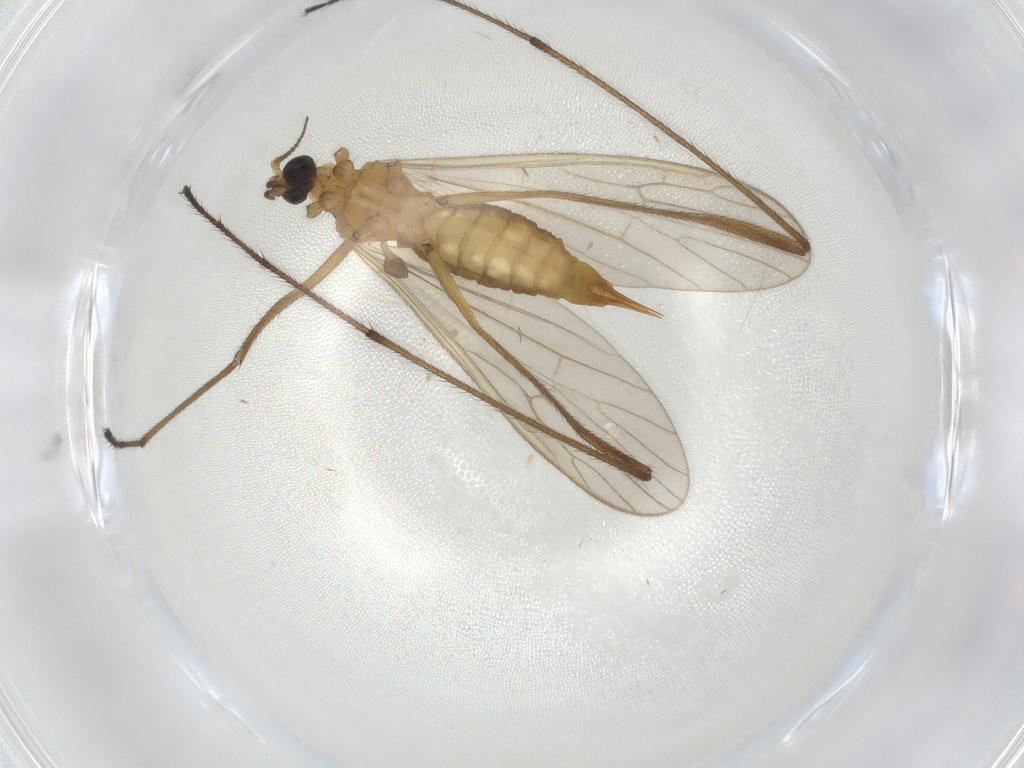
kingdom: Animalia
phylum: Arthropoda
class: Insecta
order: Diptera
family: Limoniidae
